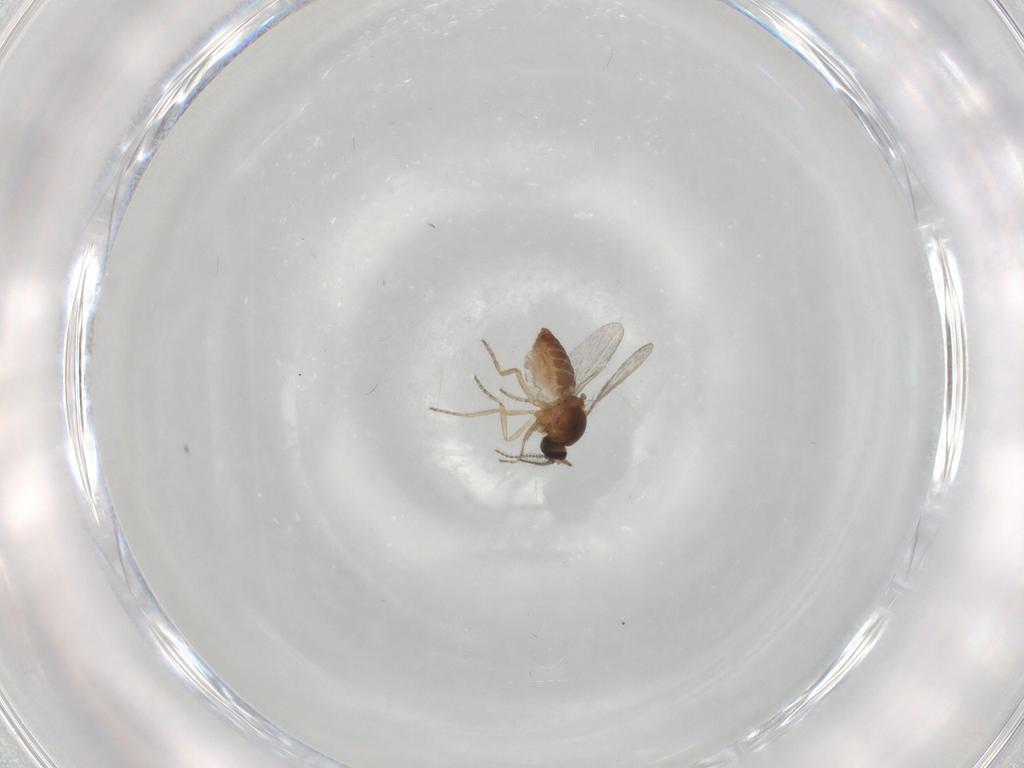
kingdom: Animalia
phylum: Arthropoda
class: Insecta
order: Diptera
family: Ceratopogonidae
